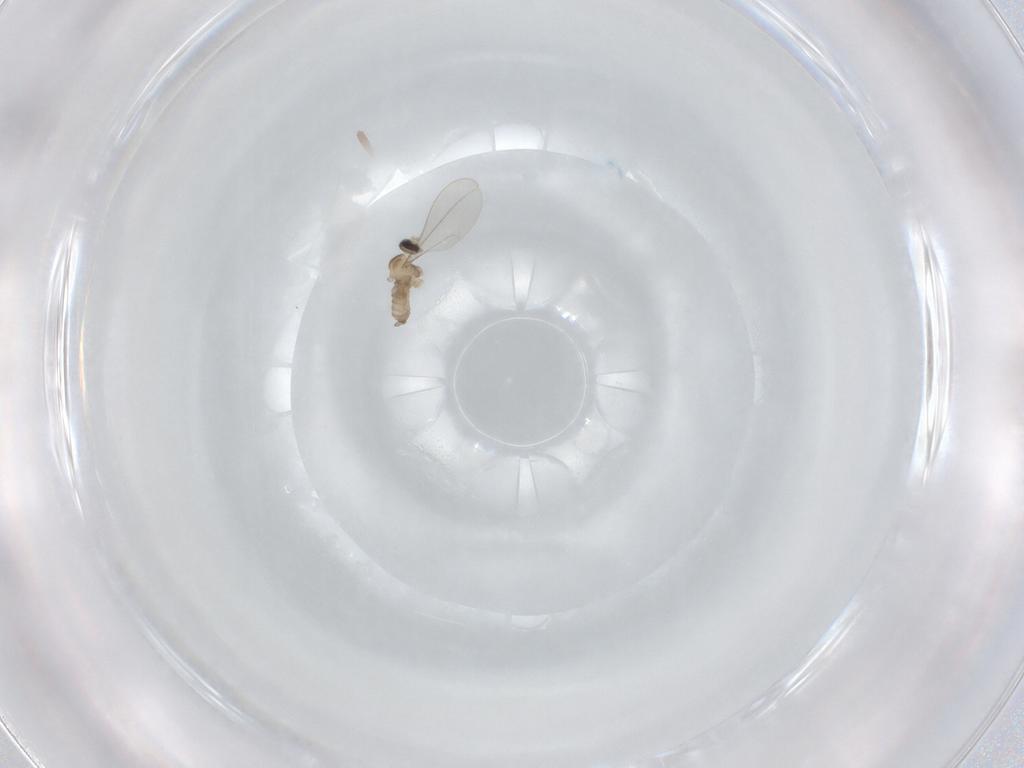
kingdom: Animalia
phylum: Arthropoda
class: Insecta
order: Diptera
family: Cecidomyiidae
